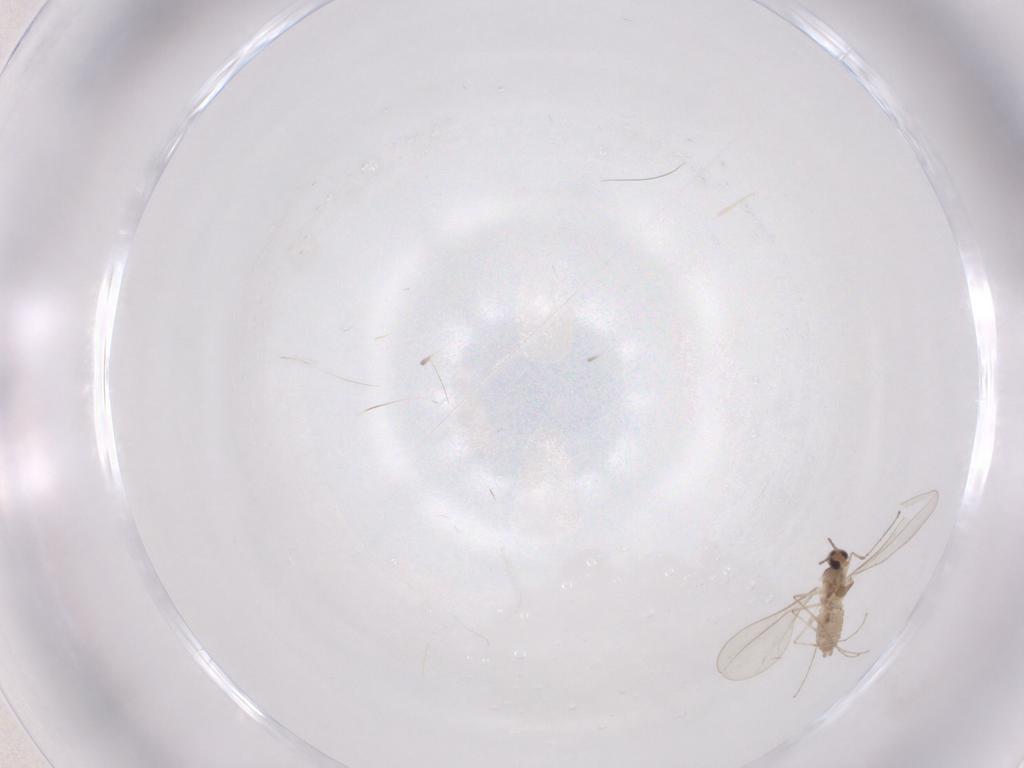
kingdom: Animalia
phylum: Arthropoda
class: Insecta
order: Diptera
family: Cecidomyiidae
